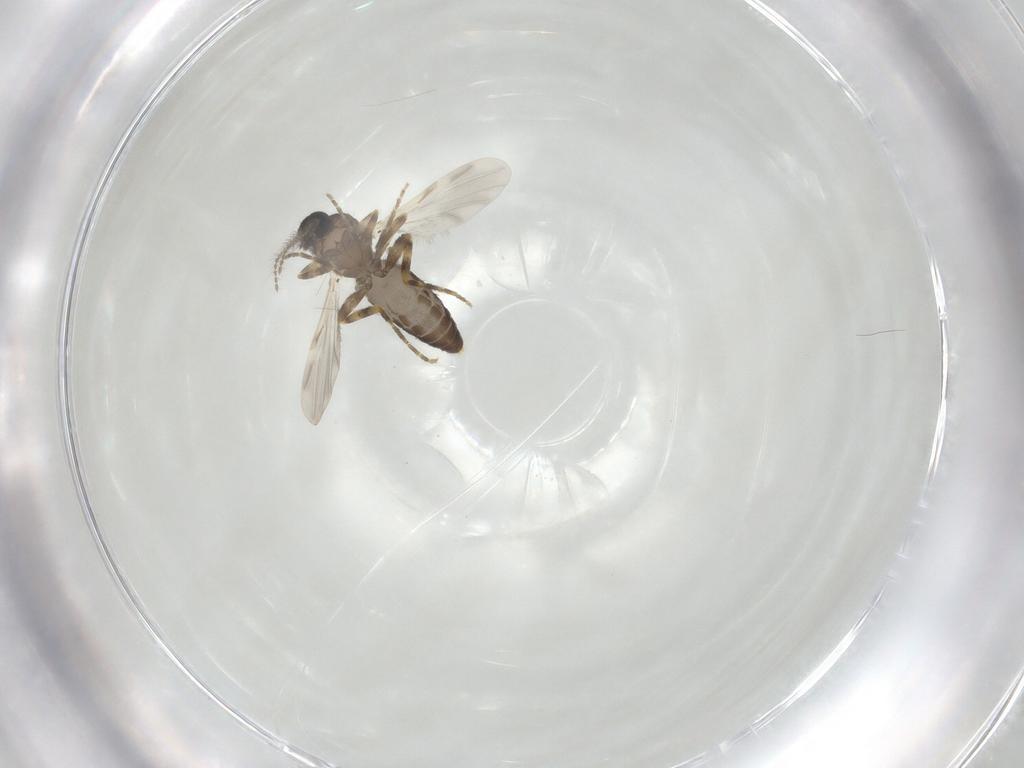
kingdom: Animalia
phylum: Arthropoda
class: Insecta
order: Diptera
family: Ceratopogonidae
